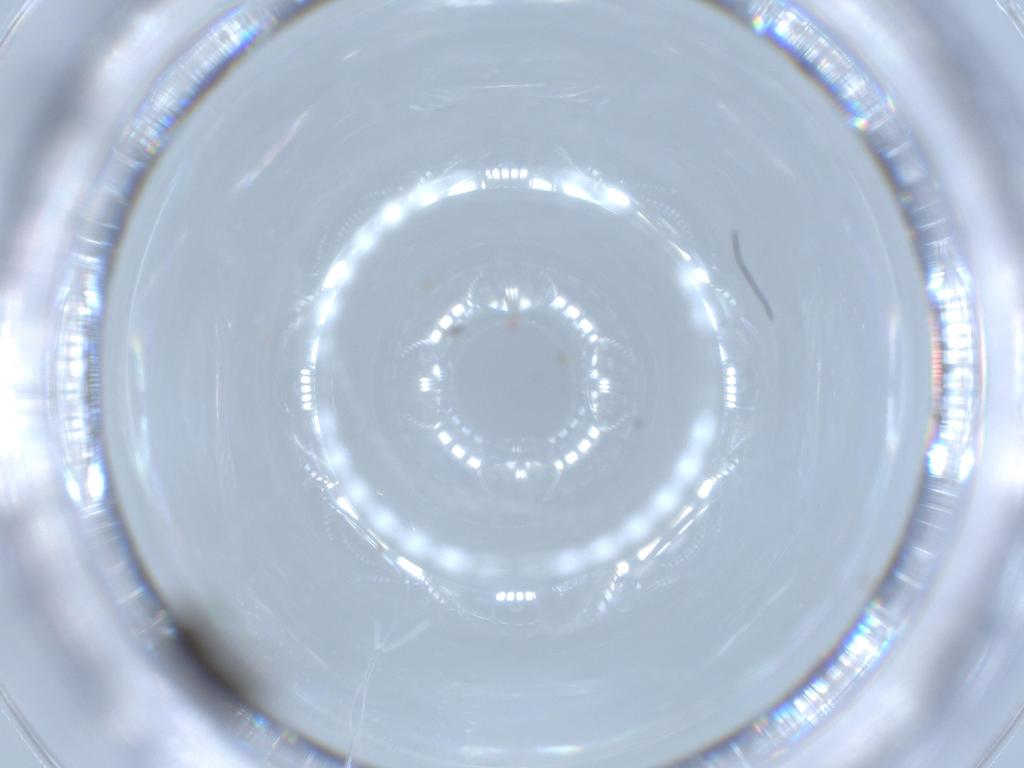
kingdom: Animalia
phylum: Arthropoda
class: Insecta
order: Diptera
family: Phoridae
